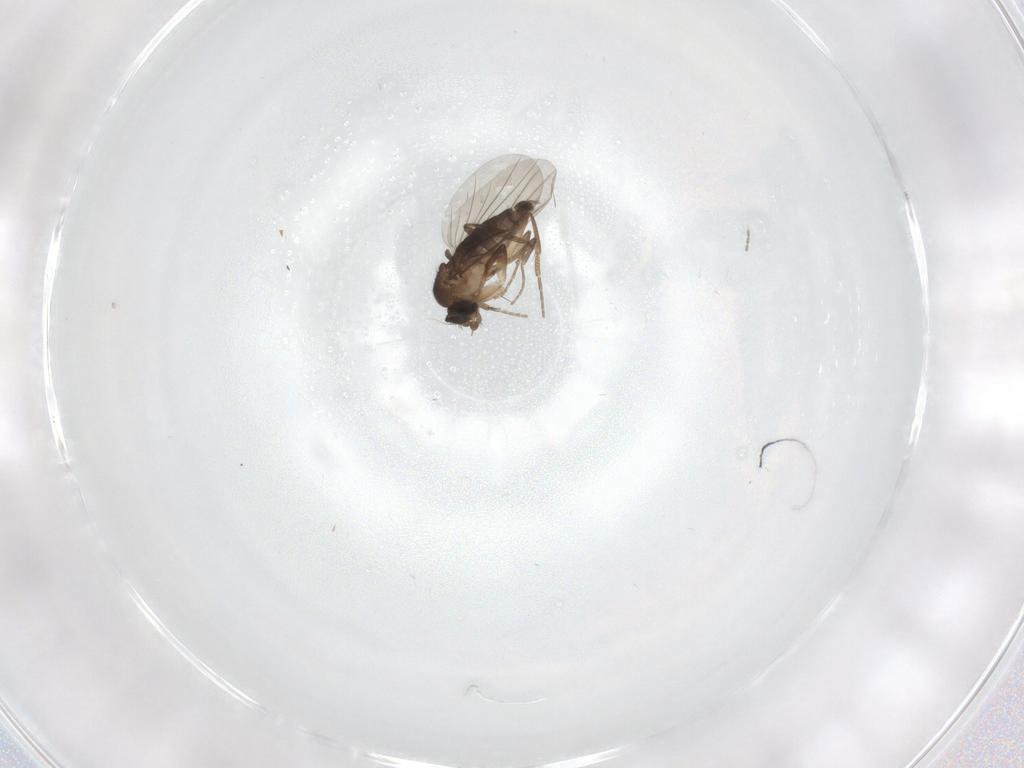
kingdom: Animalia
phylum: Arthropoda
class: Insecta
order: Diptera
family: Phoridae
